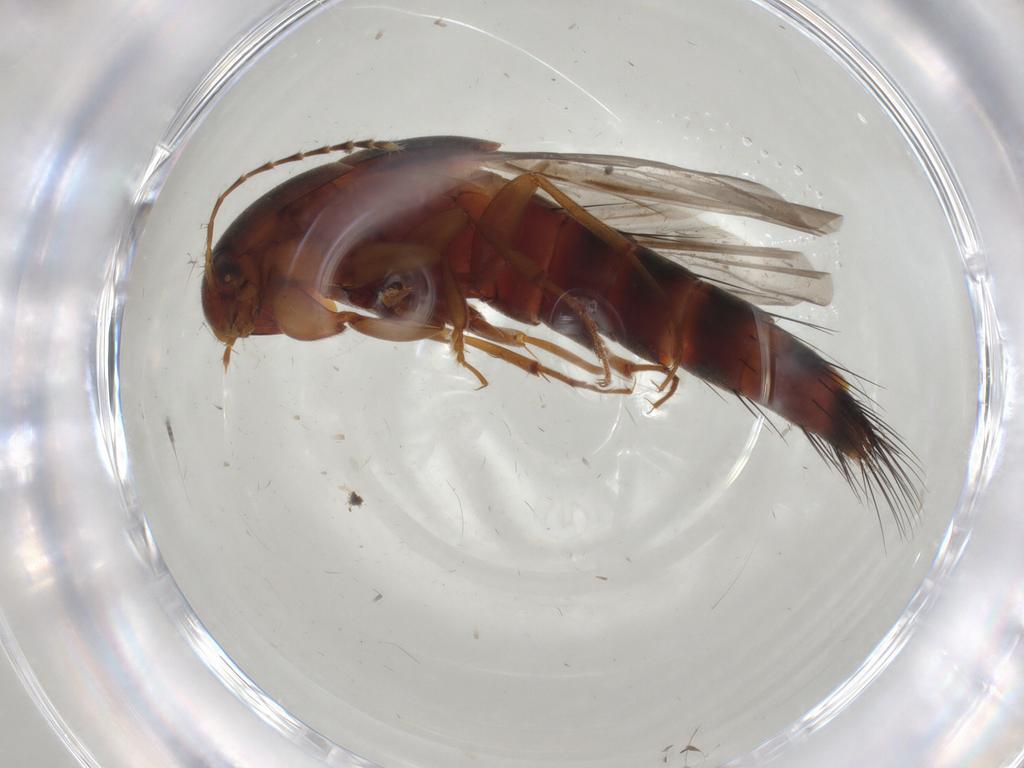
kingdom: Animalia
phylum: Arthropoda
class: Insecta
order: Coleoptera
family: Staphylinidae
